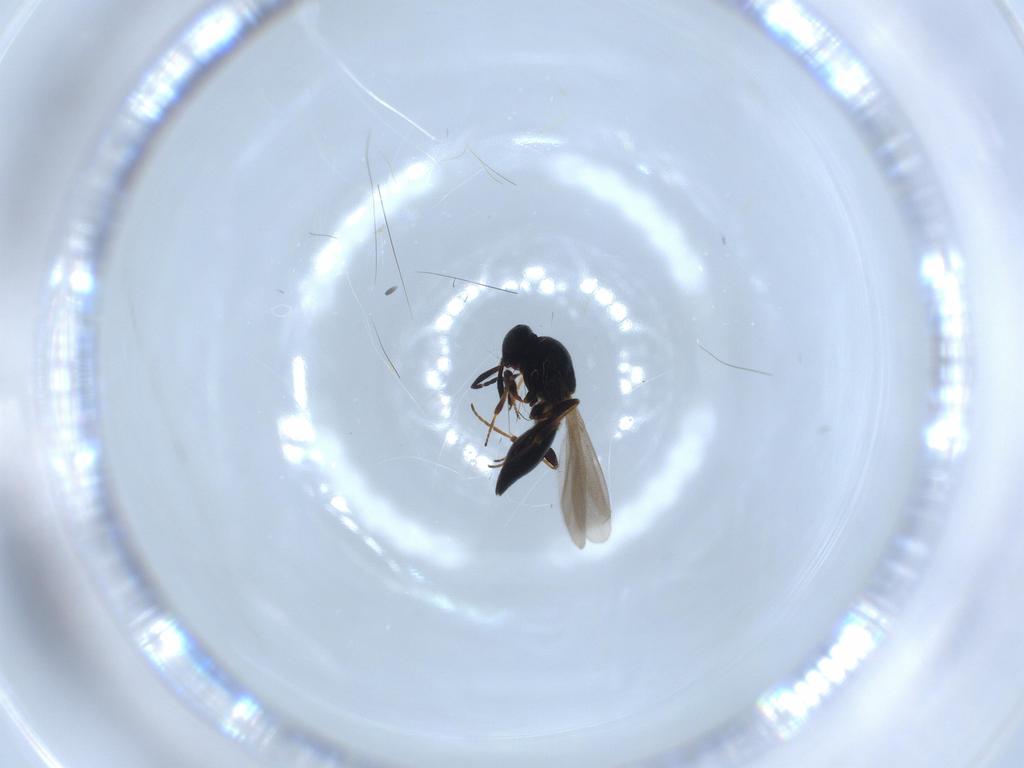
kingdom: Animalia
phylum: Arthropoda
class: Insecta
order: Hymenoptera
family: Platygastridae
